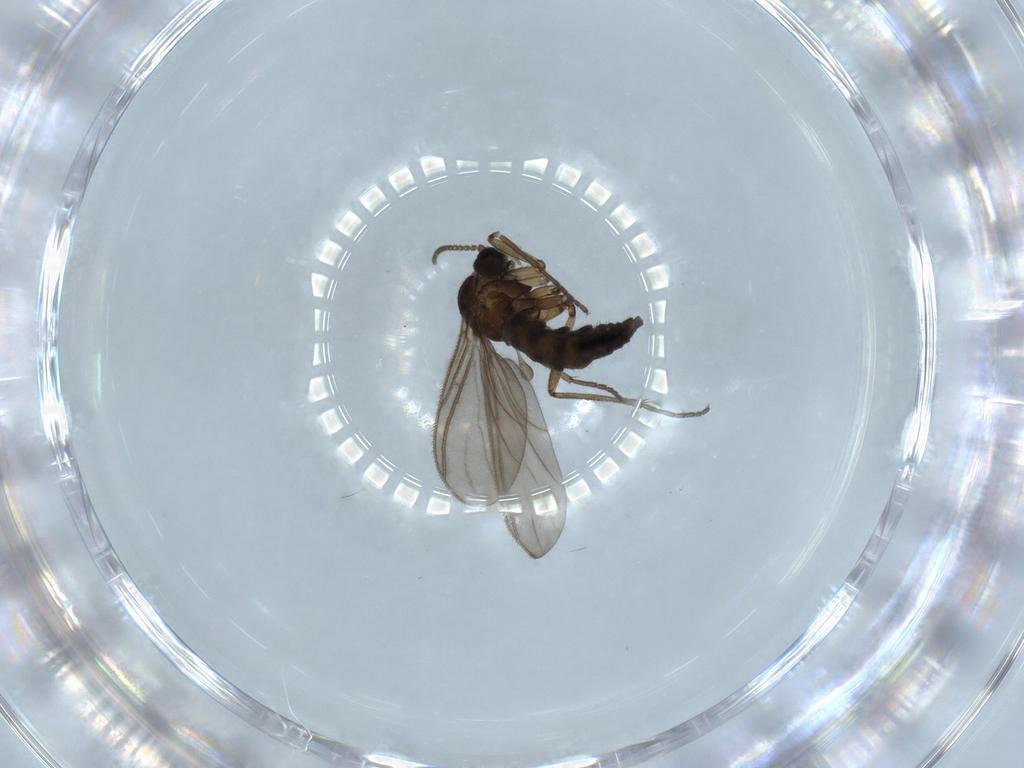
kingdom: Animalia
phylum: Arthropoda
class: Insecta
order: Diptera
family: Sciaridae
